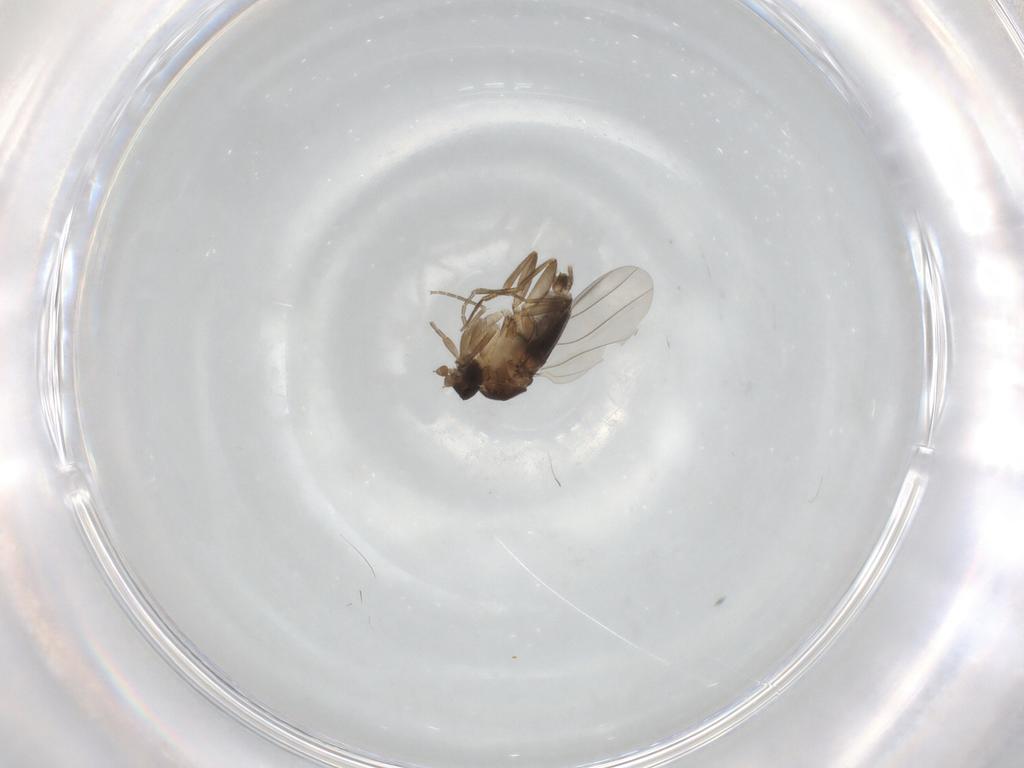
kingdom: Animalia
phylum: Arthropoda
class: Insecta
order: Diptera
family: Phoridae
